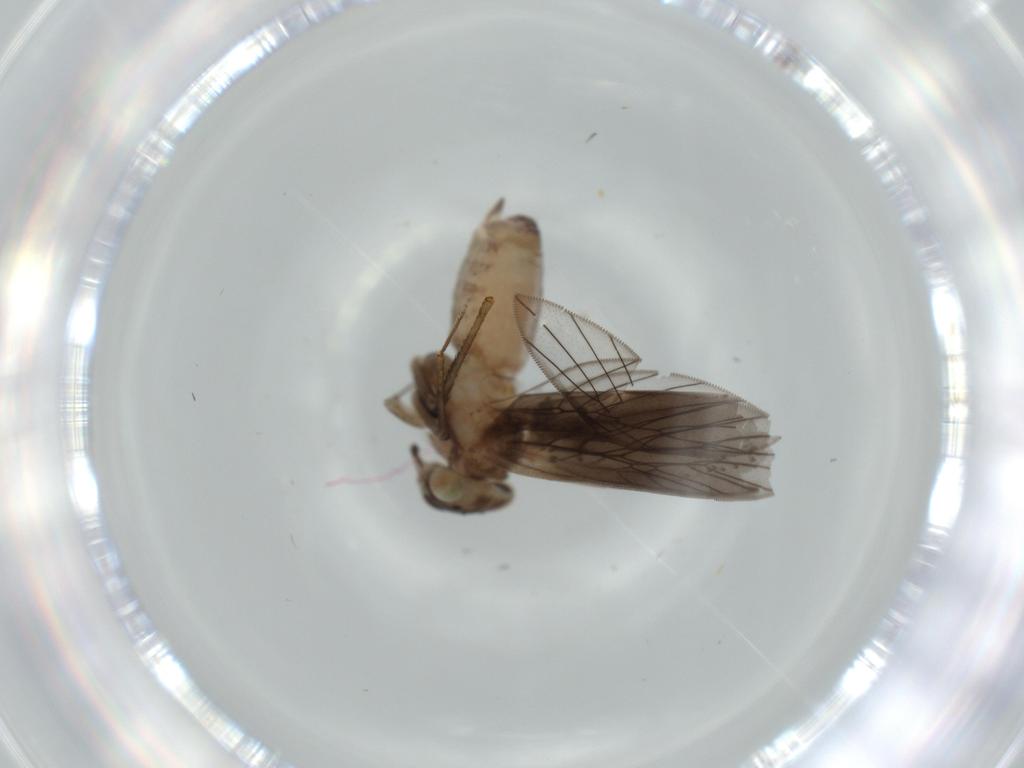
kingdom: Animalia
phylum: Arthropoda
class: Insecta
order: Psocodea
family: Lepidopsocidae
